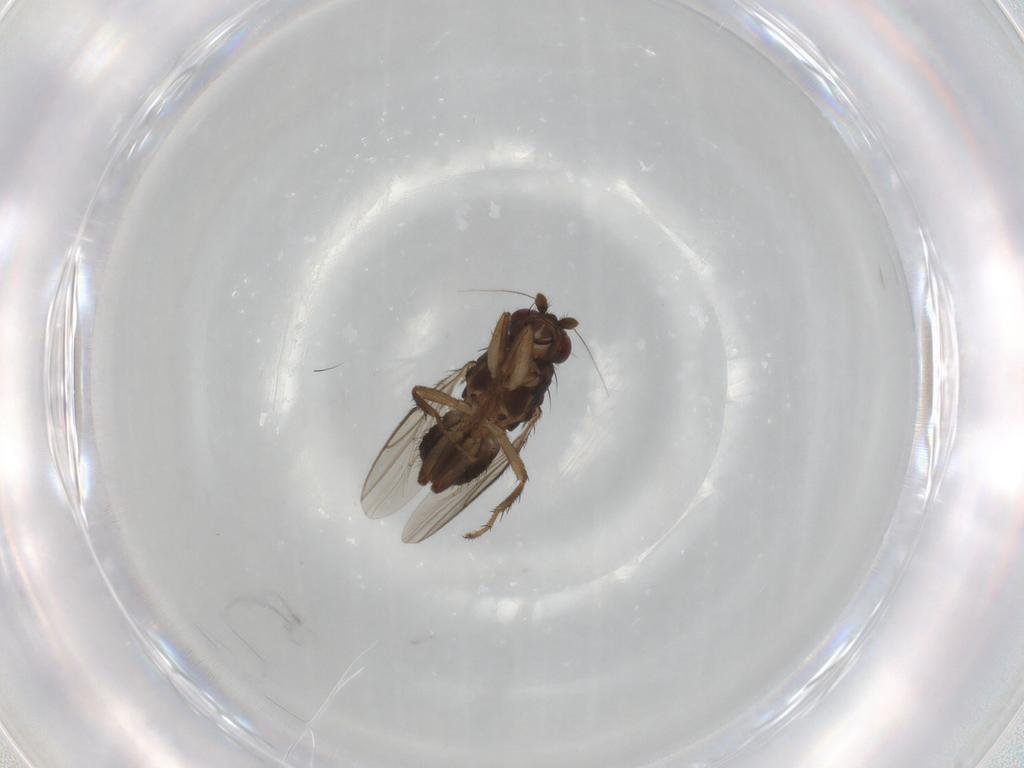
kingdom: Animalia
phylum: Arthropoda
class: Insecta
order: Diptera
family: Sphaeroceridae
